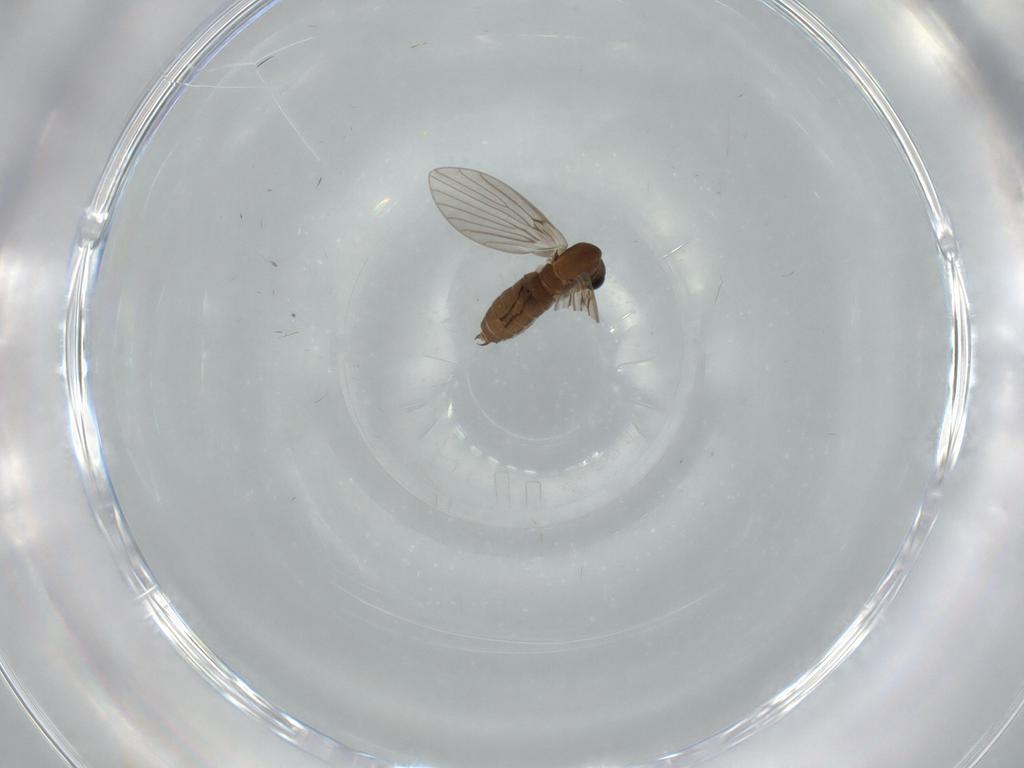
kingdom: Animalia
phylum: Arthropoda
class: Insecta
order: Diptera
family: Psychodidae
